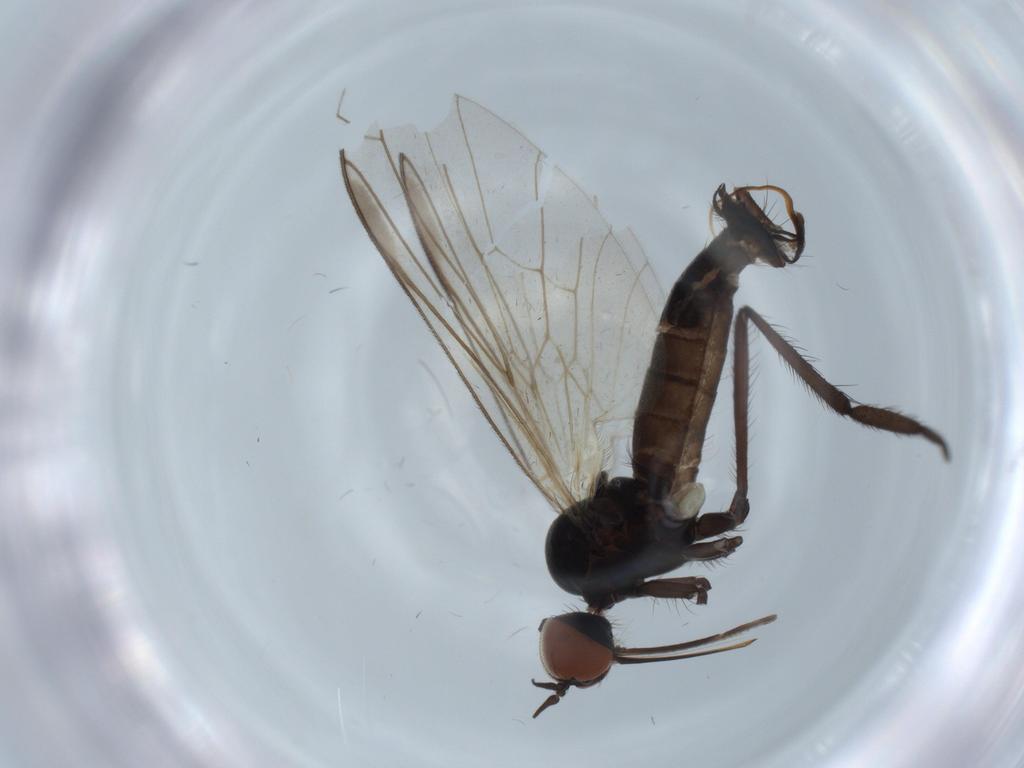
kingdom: Animalia
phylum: Arthropoda
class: Insecta
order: Diptera
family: Empididae
